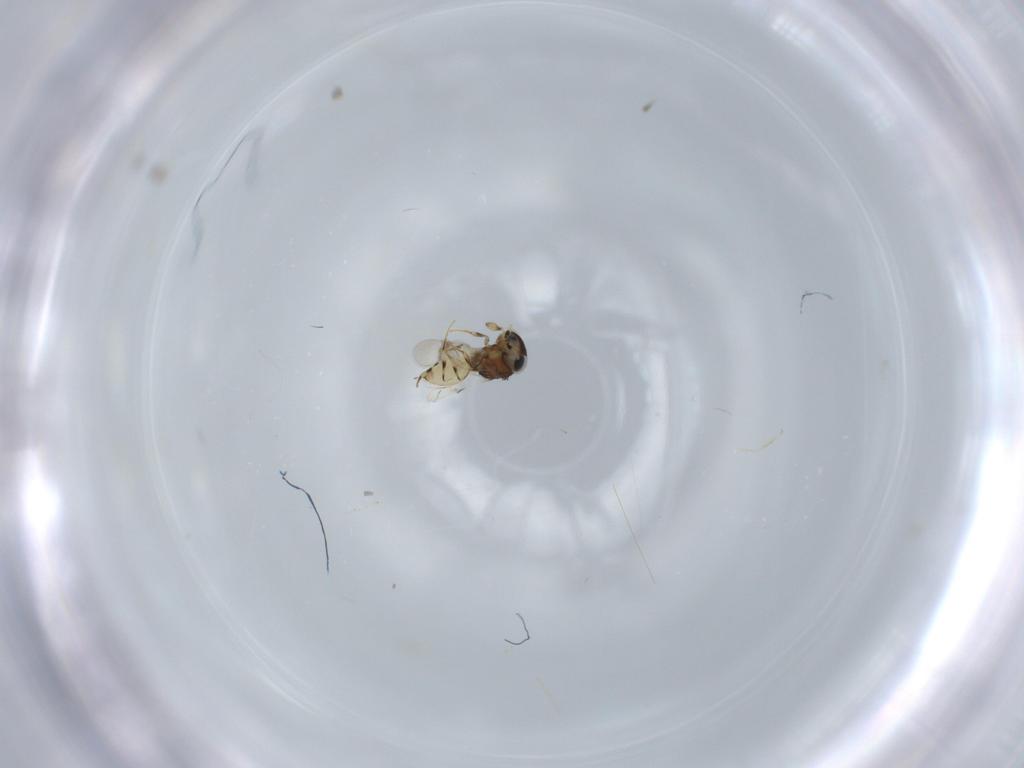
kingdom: Animalia
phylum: Arthropoda
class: Insecta
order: Hymenoptera
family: Scelionidae
